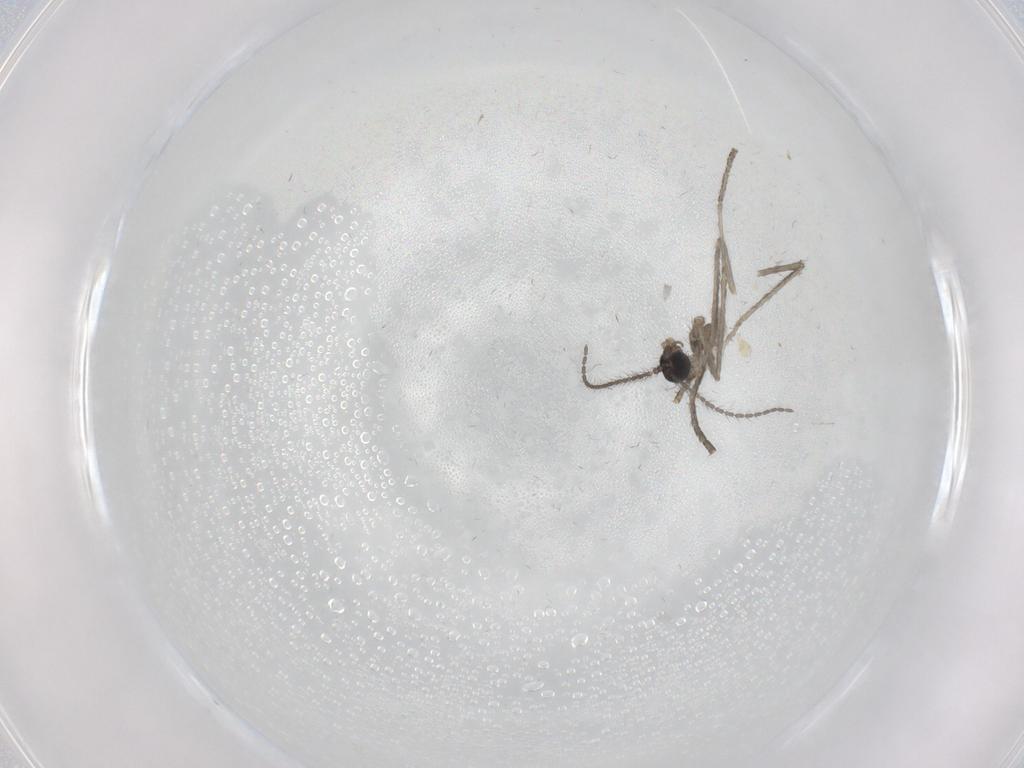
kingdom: Animalia
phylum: Arthropoda
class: Insecta
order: Diptera
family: Cecidomyiidae
